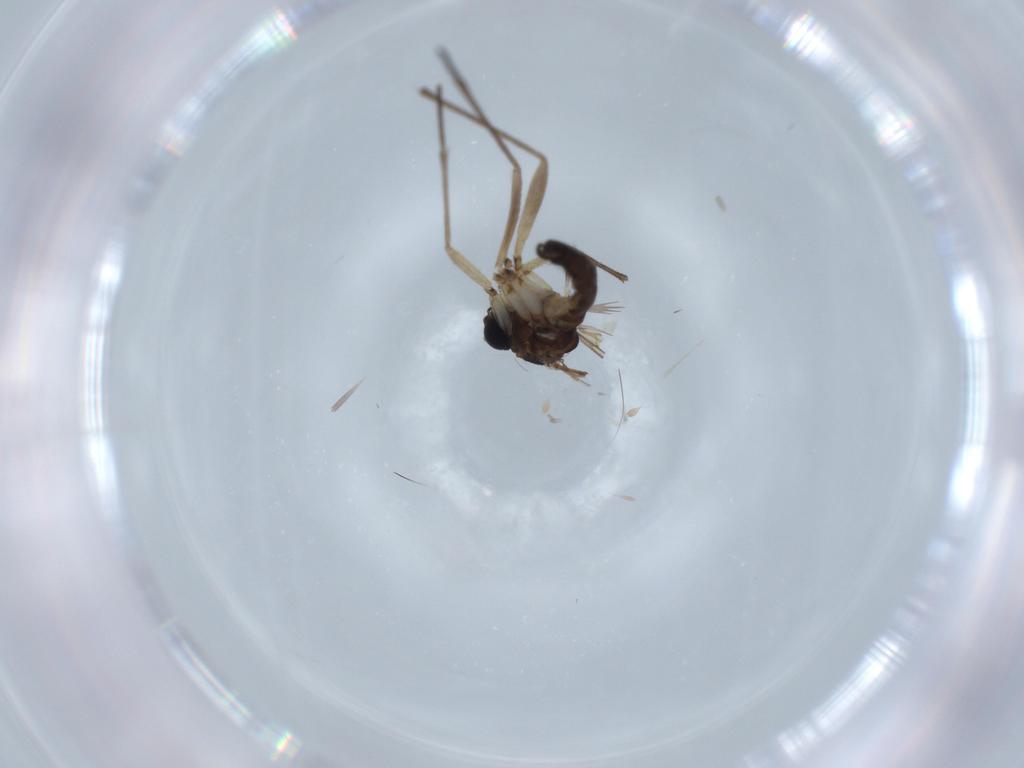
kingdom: Animalia
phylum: Arthropoda
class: Insecta
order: Diptera
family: Sciaridae
